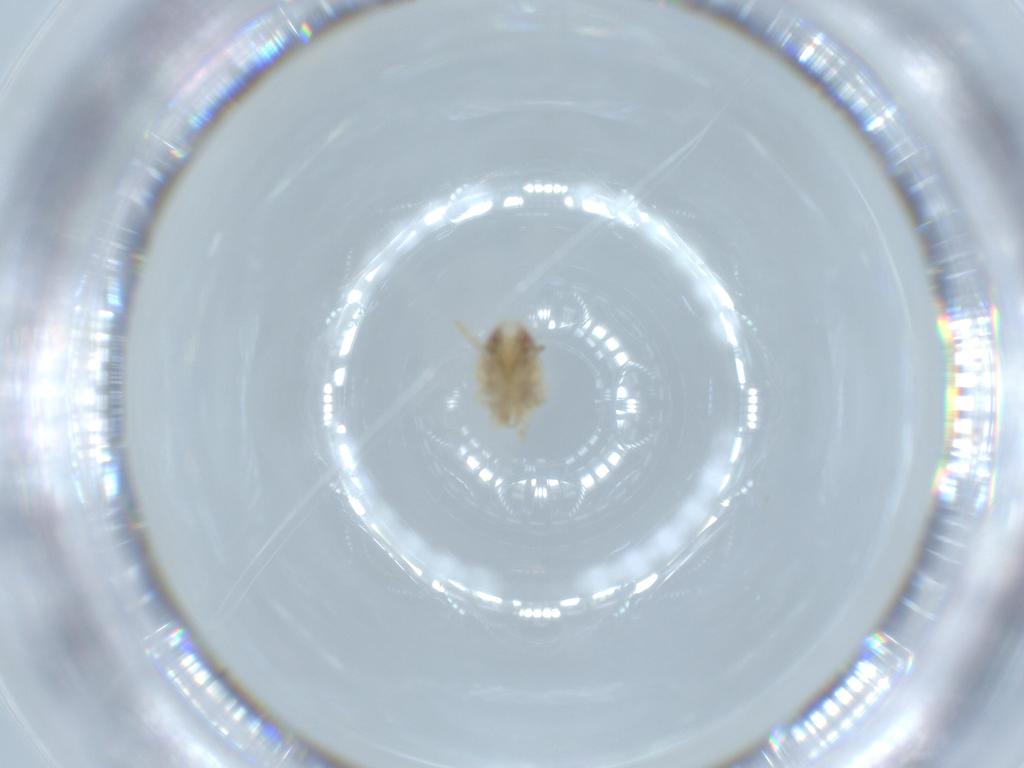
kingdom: Animalia
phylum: Arthropoda
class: Insecta
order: Hemiptera
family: Acanaloniidae
